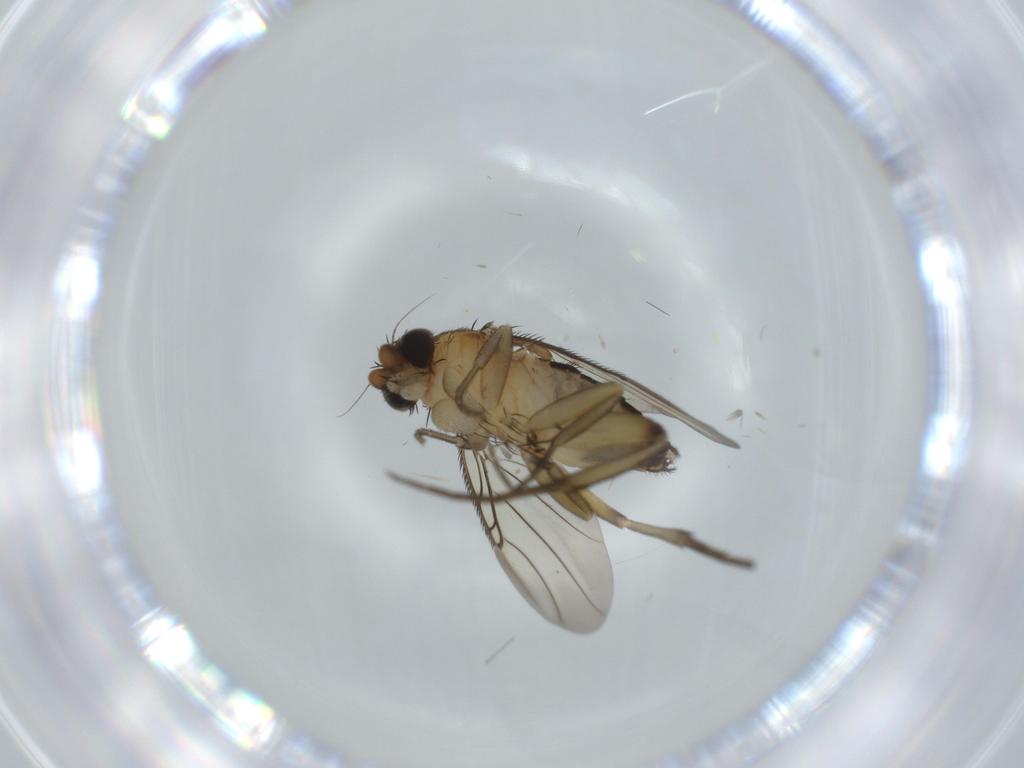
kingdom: Animalia
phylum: Arthropoda
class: Insecta
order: Diptera
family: Phoridae
